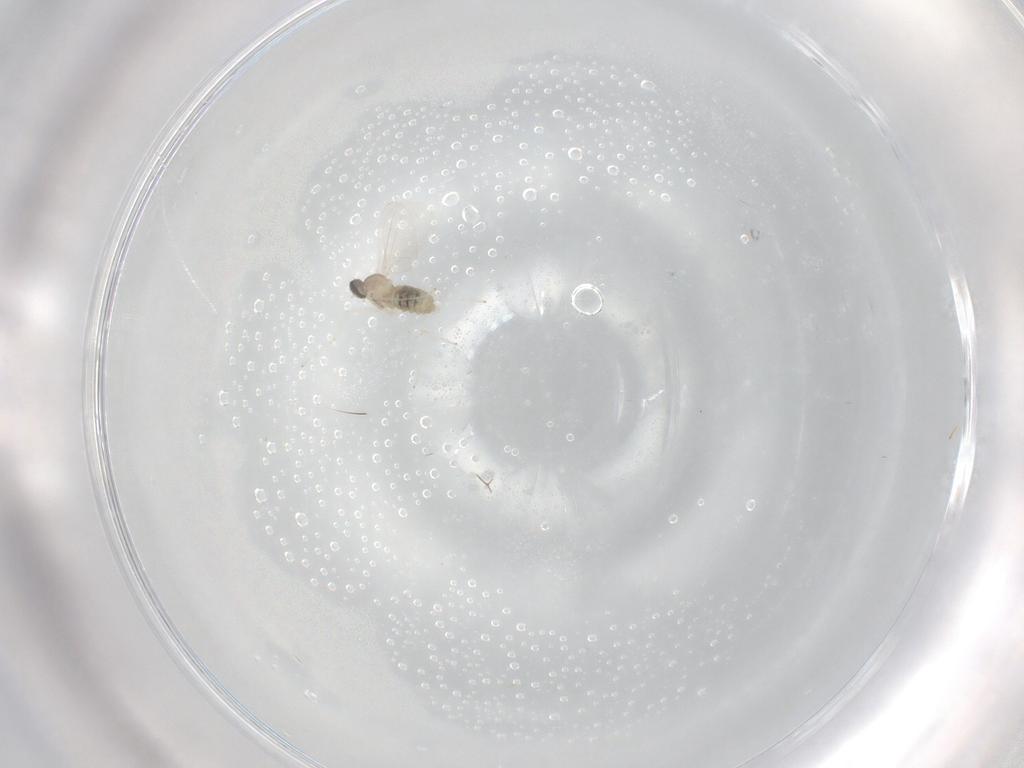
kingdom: Animalia
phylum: Arthropoda
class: Insecta
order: Diptera
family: Cecidomyiidae
